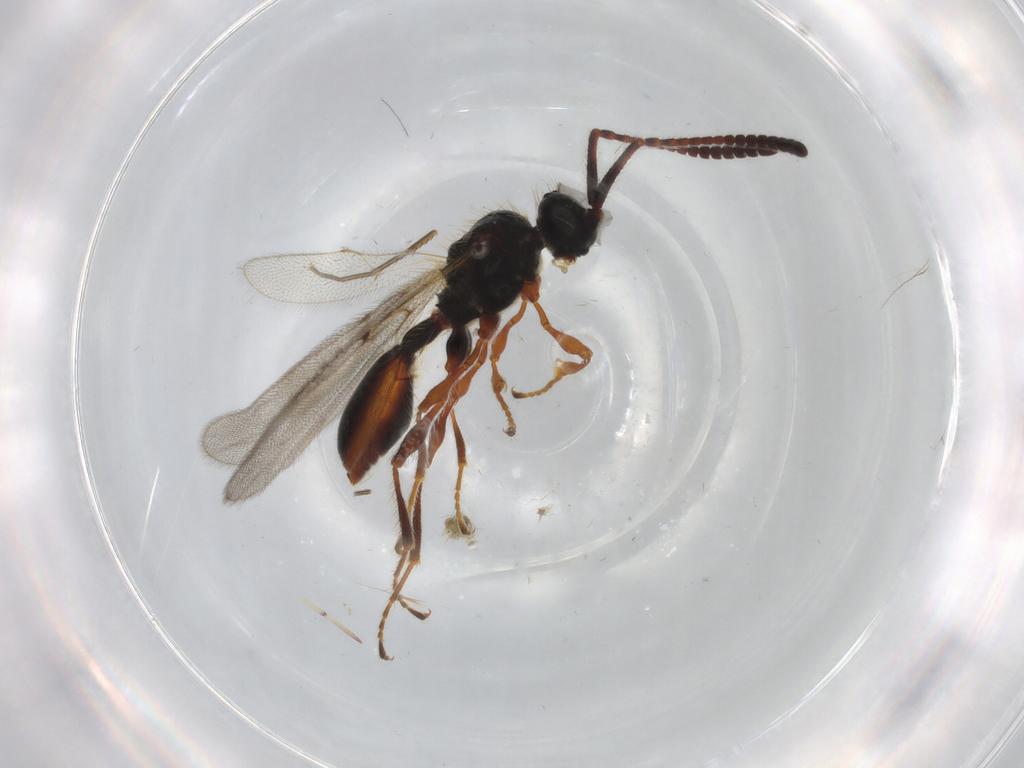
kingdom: Animalia
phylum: Arthropoda
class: Insecta
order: Hymenoptera
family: Diapriidae
